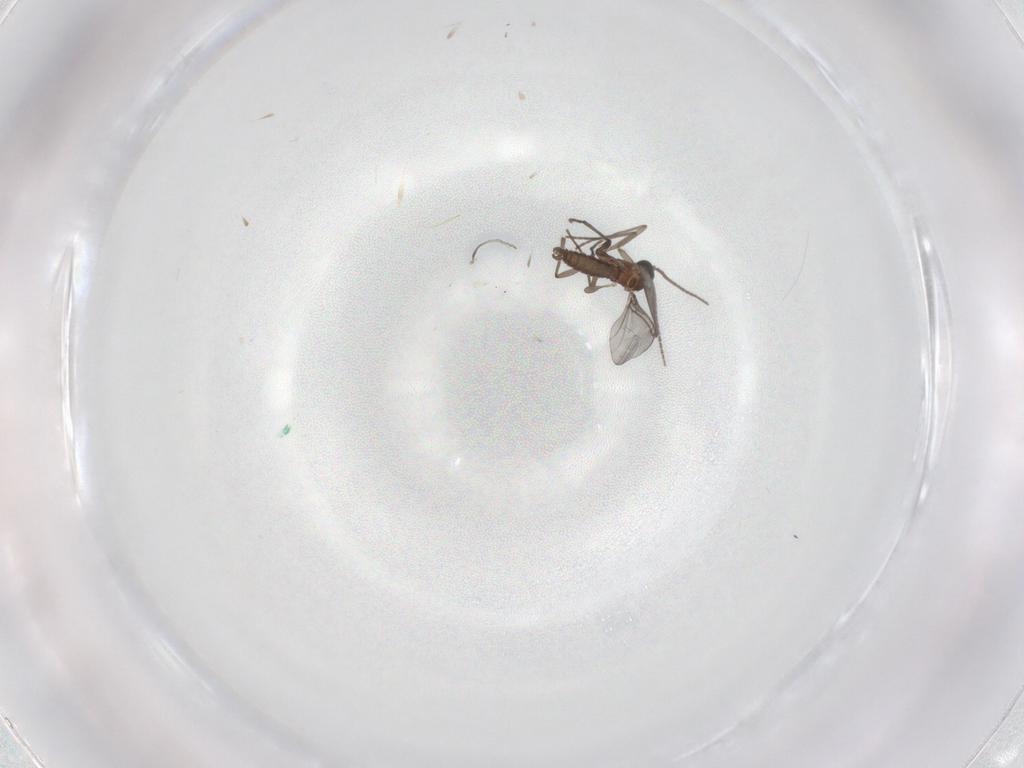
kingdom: Animalia
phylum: Arthropoda
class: Insecta
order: Diptera
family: Sciaridae
